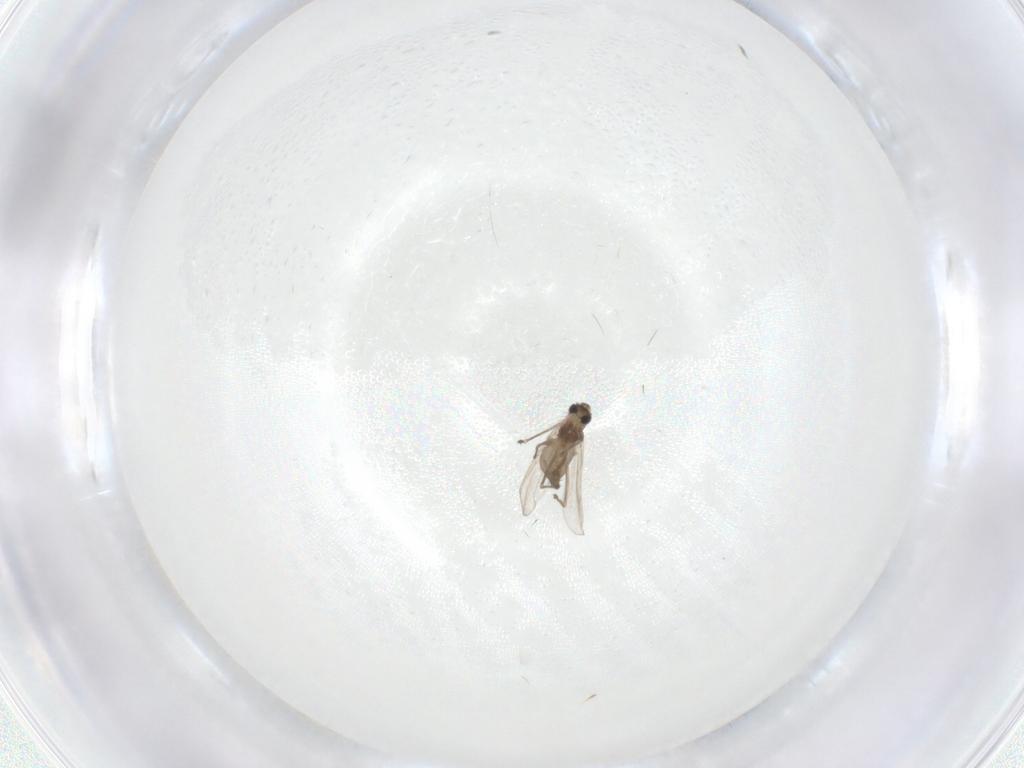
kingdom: Animalia
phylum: Arthropoda
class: Insecta
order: Diptera
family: Chironomidae
